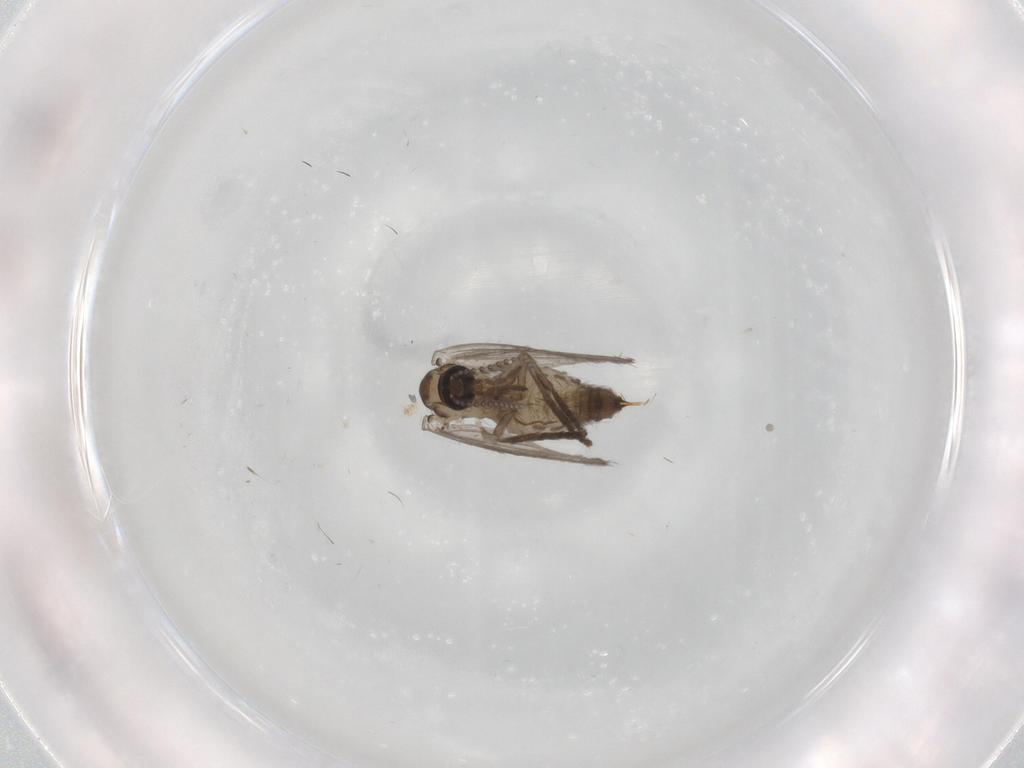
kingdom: Animalia
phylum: Arthropoda
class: Insecta
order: Diptera
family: Psychodidae
